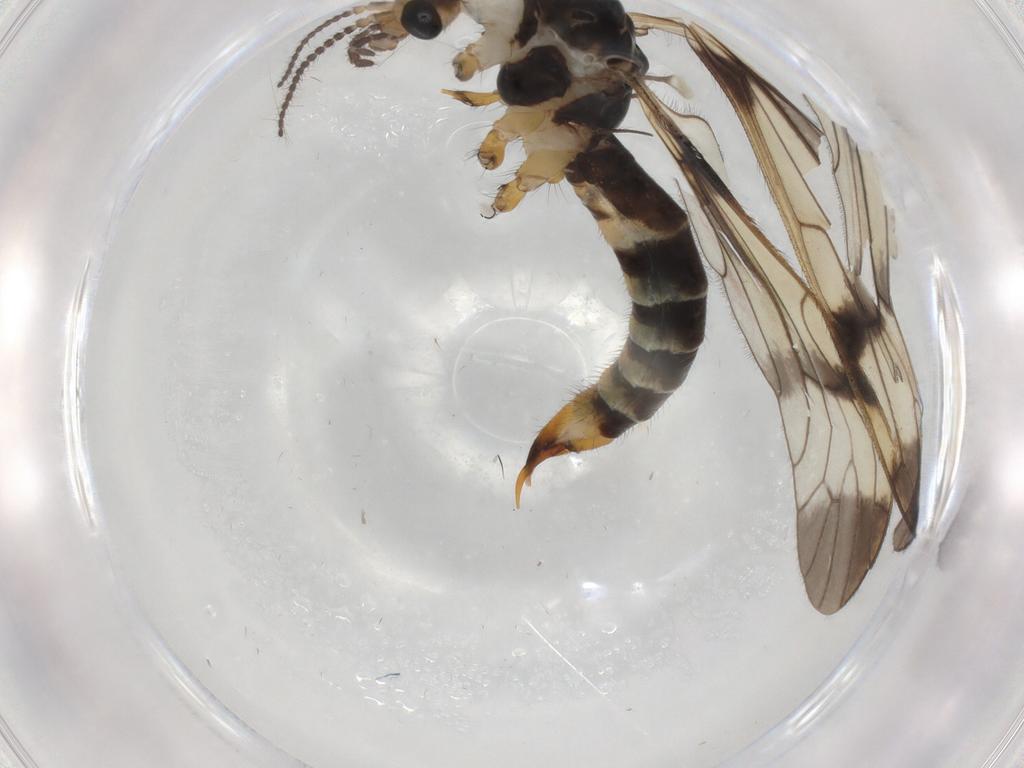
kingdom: Animalia
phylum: Arthropoda
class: Insecta
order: Diptera
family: Limoniidae
